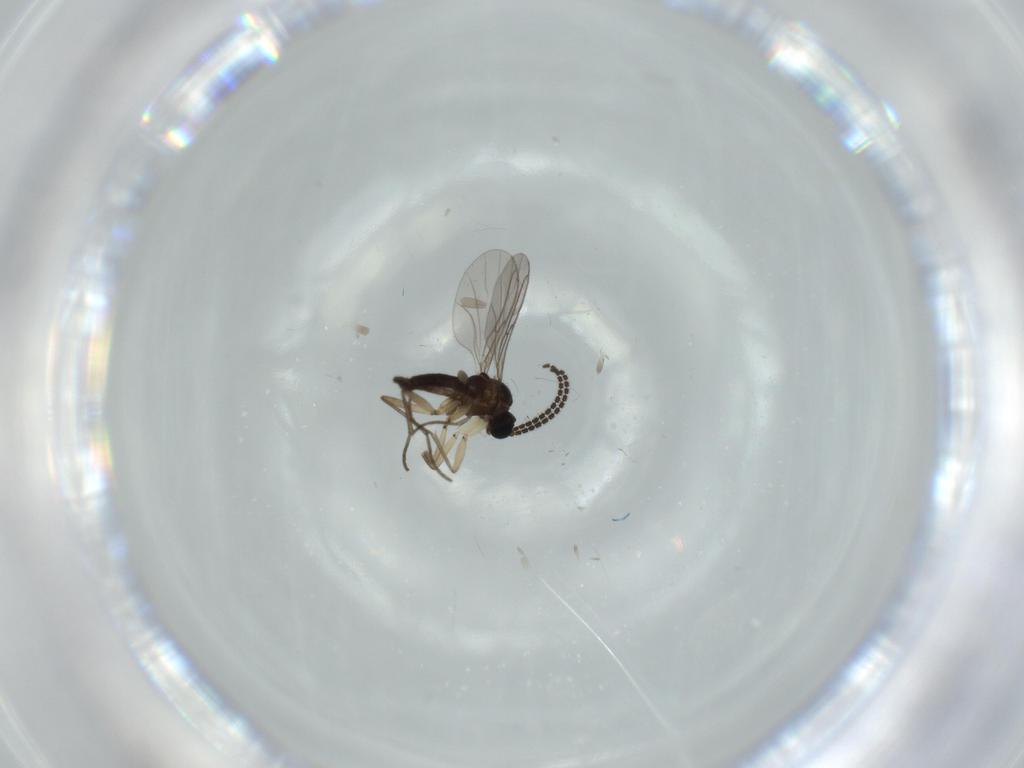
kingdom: Animalia
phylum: Arthropoda
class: Insecta
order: Diptera
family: Sciaridae
